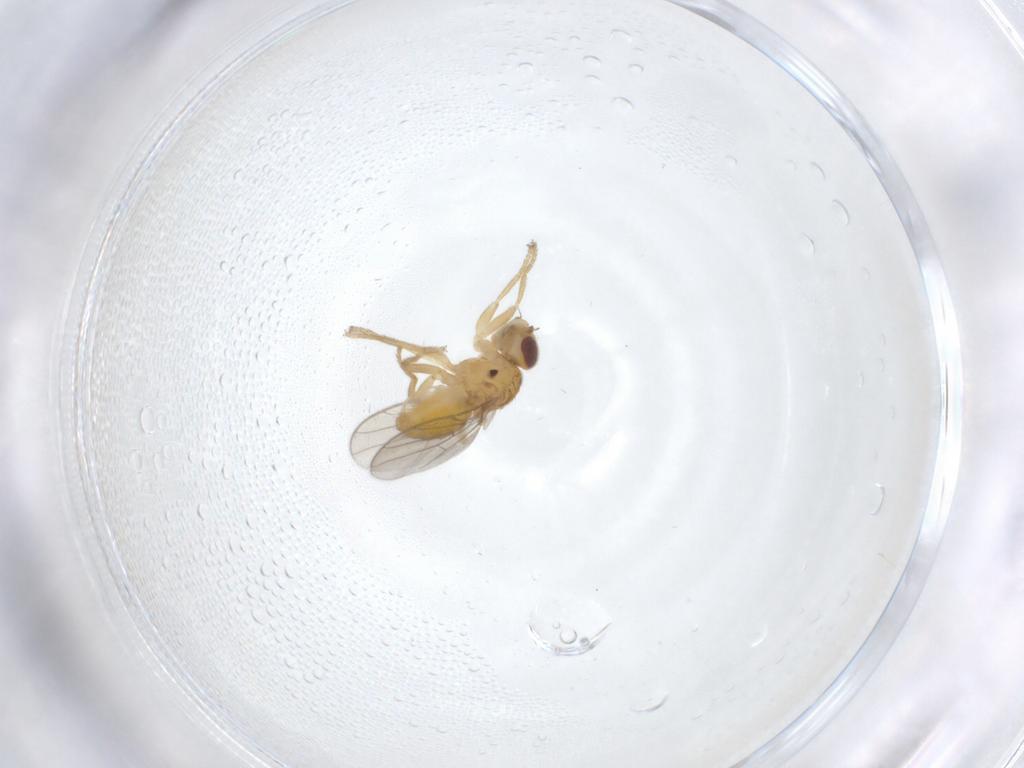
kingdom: Animalia
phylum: Arthropoda
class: Insecta
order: Diptera
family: Chloropidae
